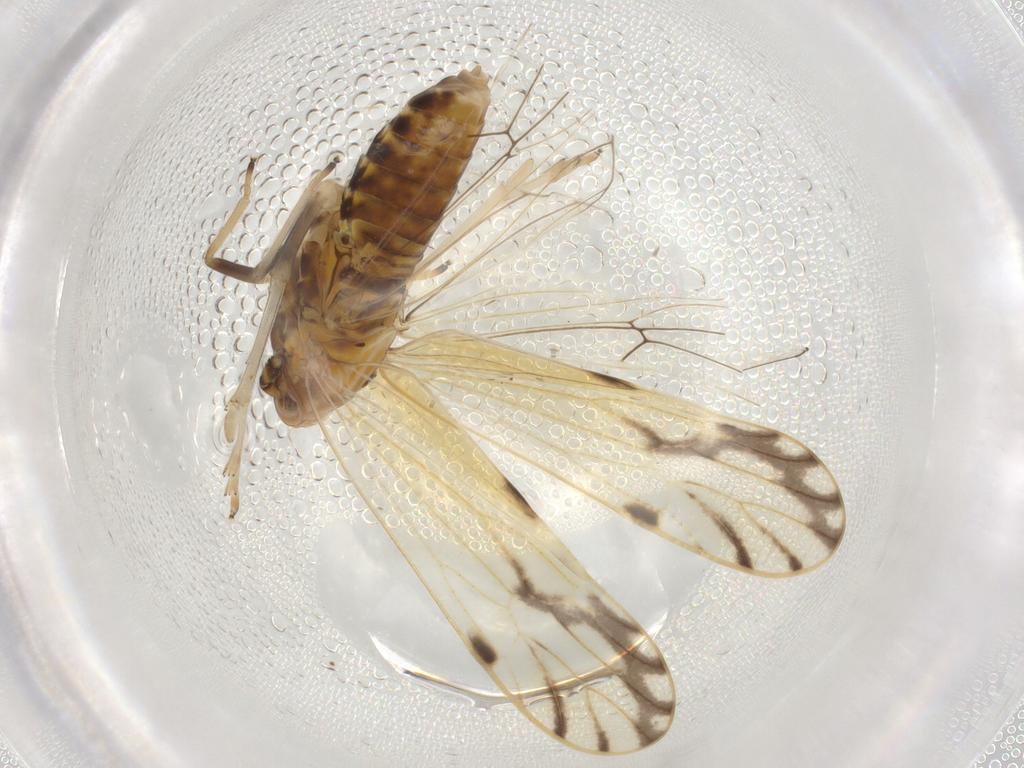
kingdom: Animalia
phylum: Arthropoda
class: Insecta
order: Hemiptera
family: Delphacidae
